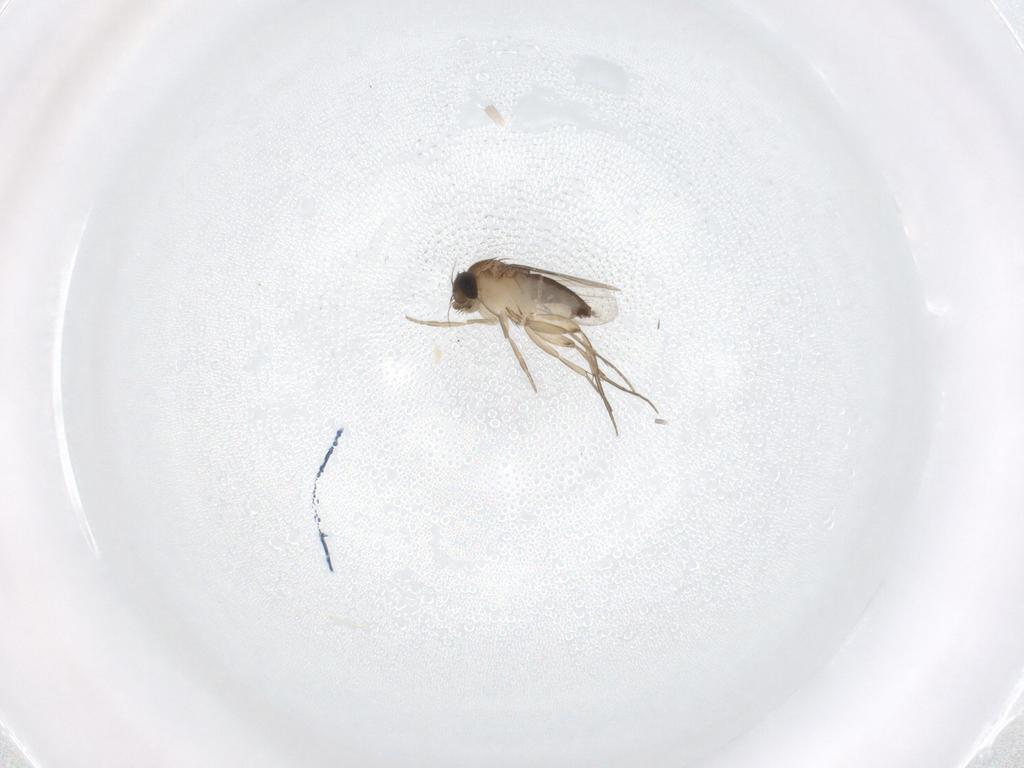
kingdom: Animalia
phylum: Arthropoda
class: Insecta
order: Diptera
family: Phoridae
